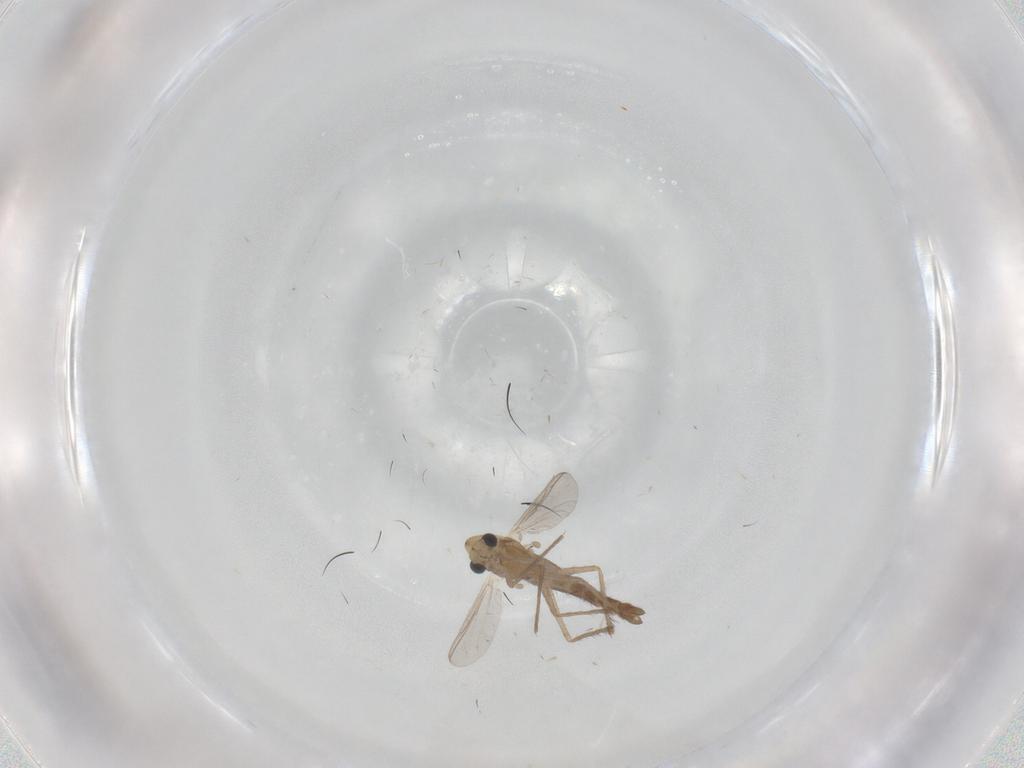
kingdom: Animalia
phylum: Arthropoda
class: Insecta
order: Diptera
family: Chironomidae
